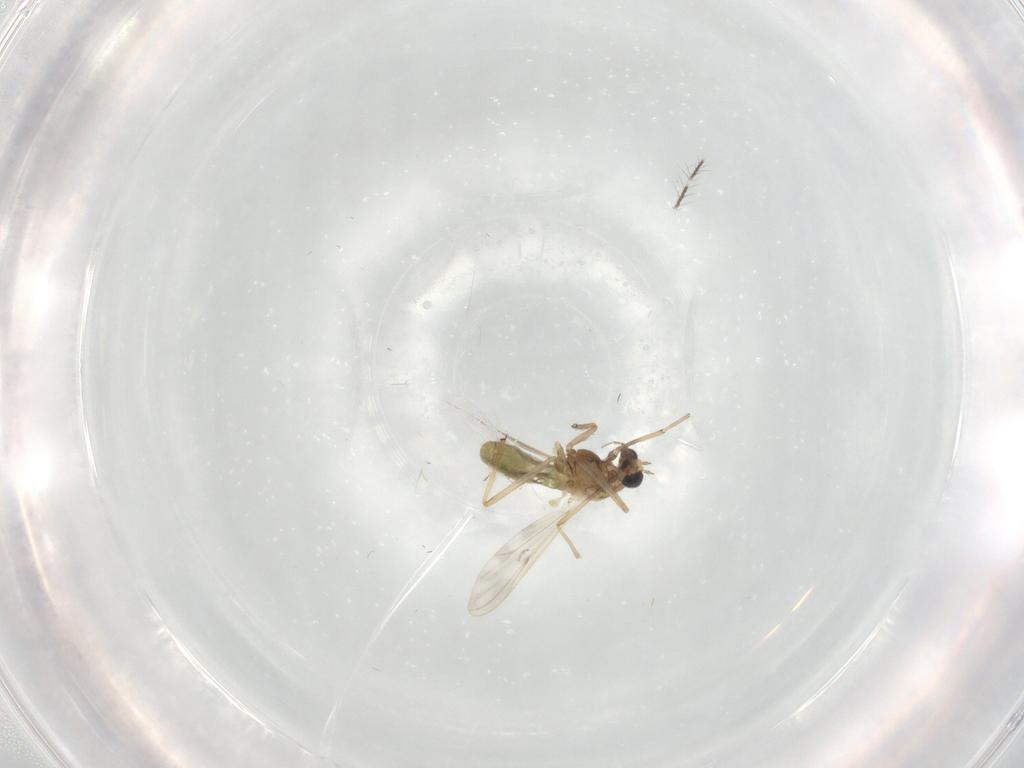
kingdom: Animalia
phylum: Arthropoda
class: Insecta
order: Diptera
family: Chironomidae
